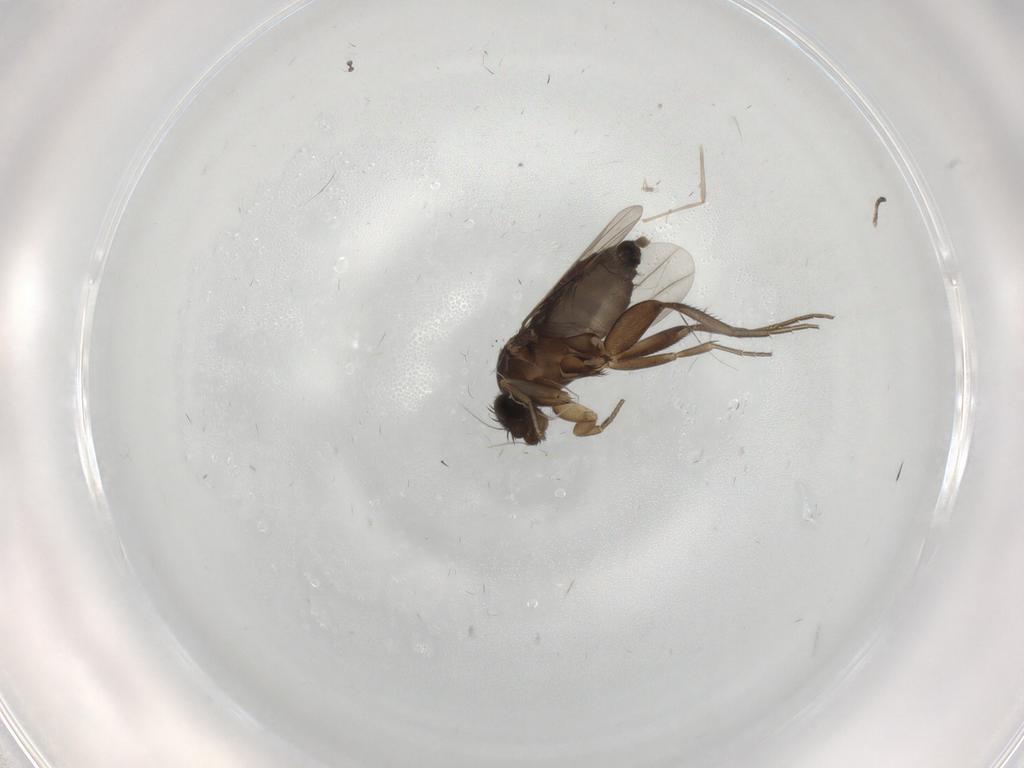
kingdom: Animalia
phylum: Arthropoda
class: Insecta
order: Diptera
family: Phoridae
